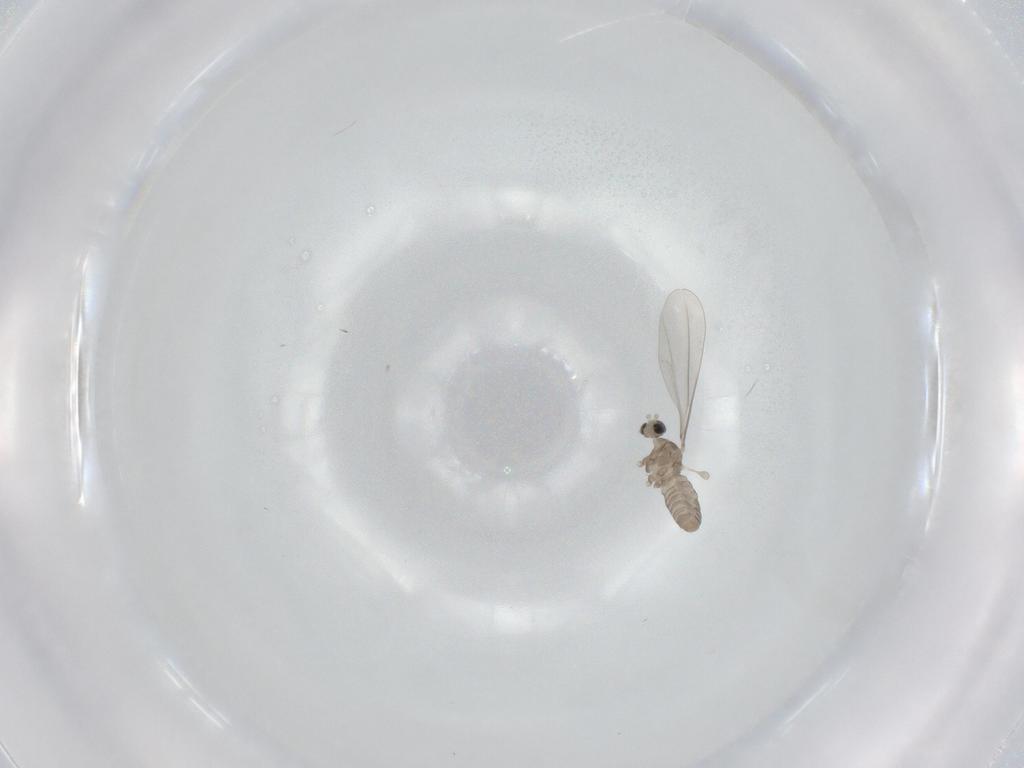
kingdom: Animalia
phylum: Arthropoda
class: Insecta
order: Diptera
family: Cecidomyiidae
